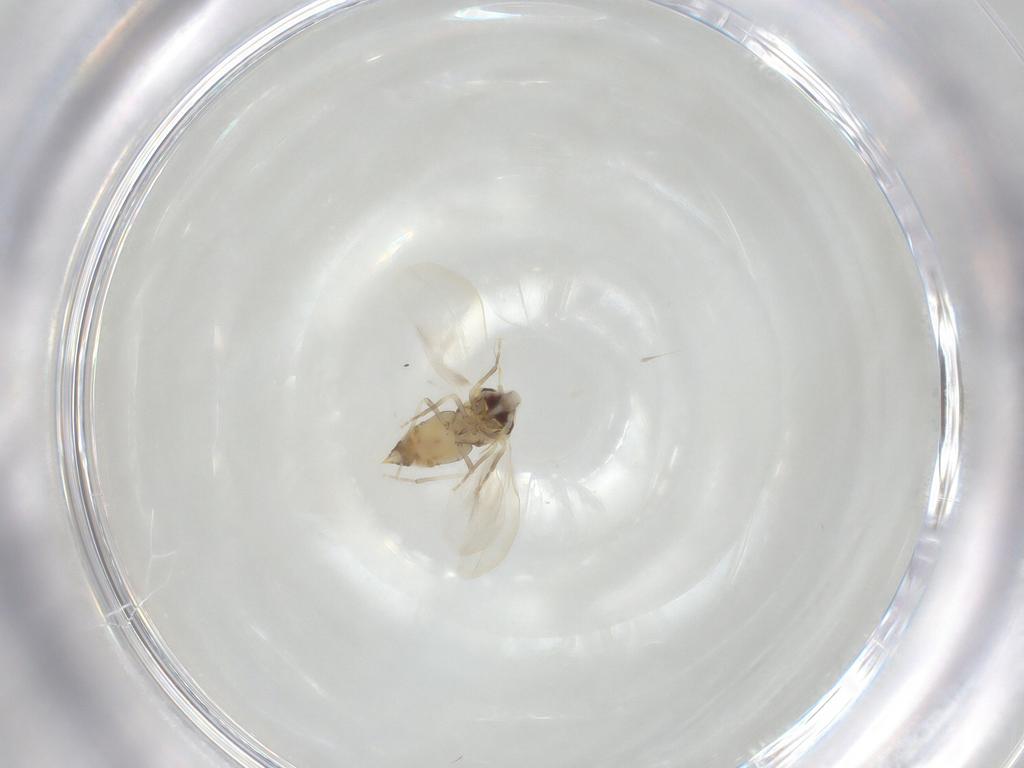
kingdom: Animalia
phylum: Arthropoda
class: Insecta
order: Hemiptera
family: Aleyrodidae
